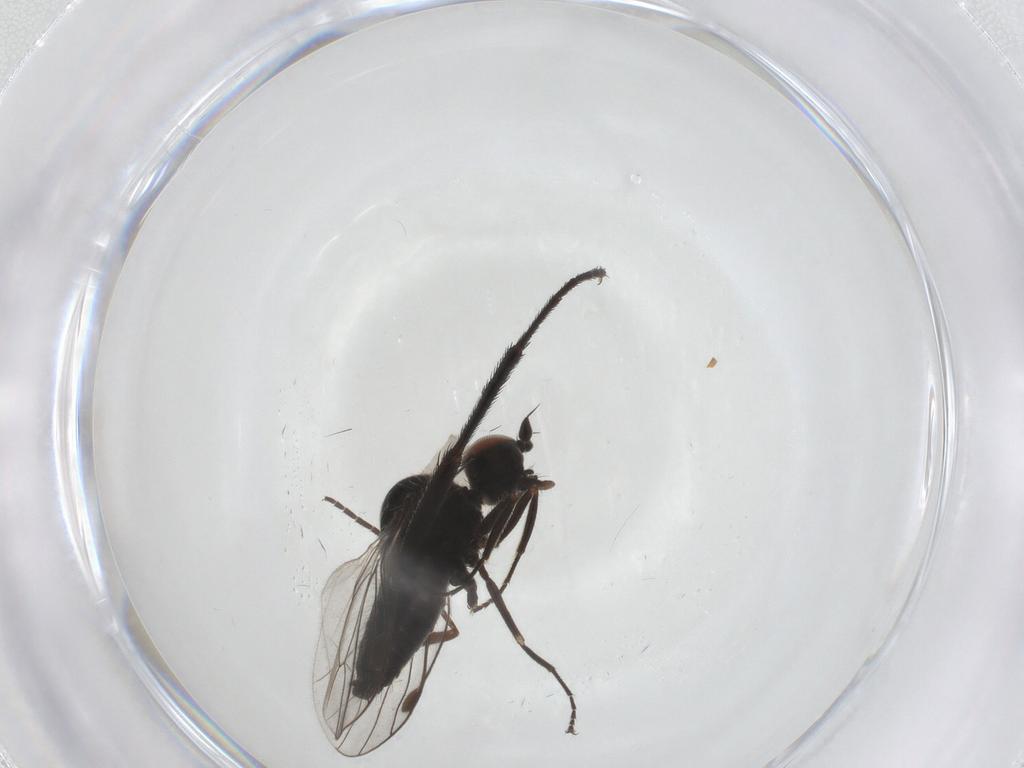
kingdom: Animalia
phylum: Arthropoda
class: Insecta
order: Diptera
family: Muscidae
